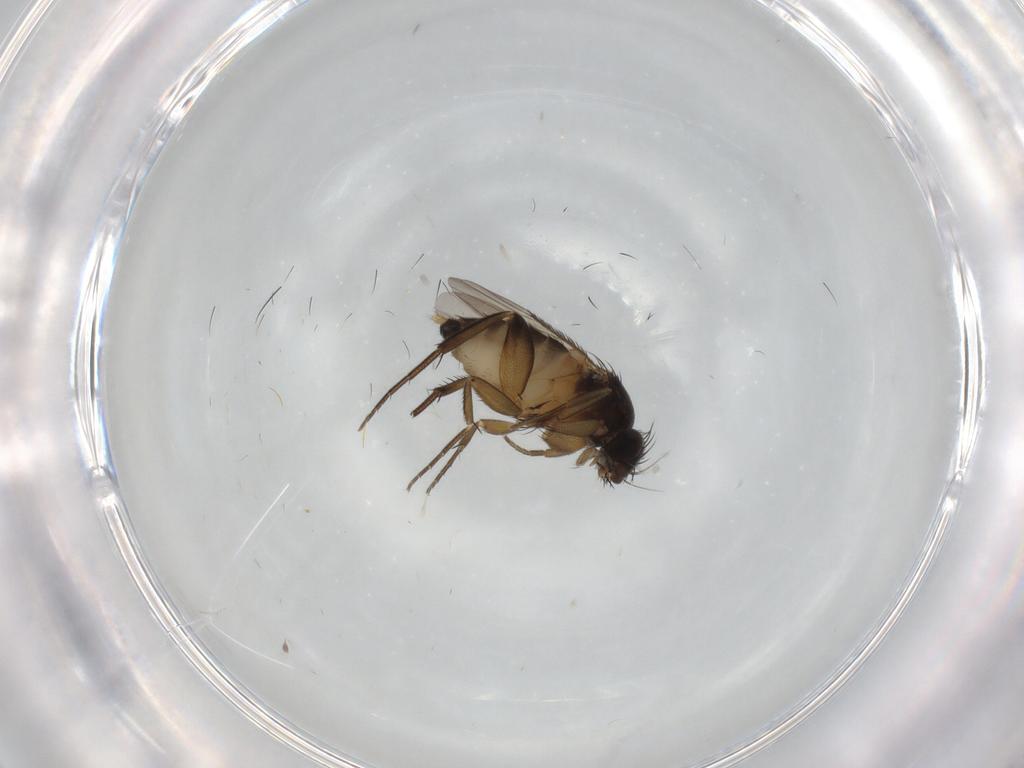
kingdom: Animalia
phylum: Arthropoda
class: Insecta
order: Diptera
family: Phoridae
